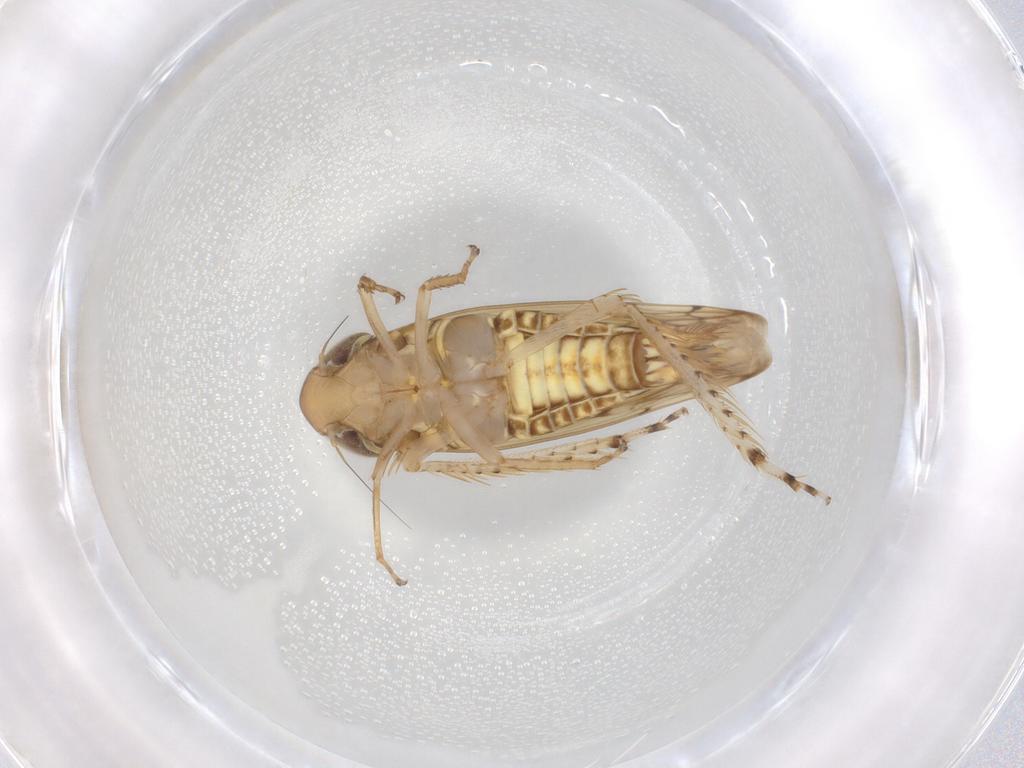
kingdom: Animalia
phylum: Arthropoda
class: Insecta
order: Hemiptera
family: Cicadellidae
